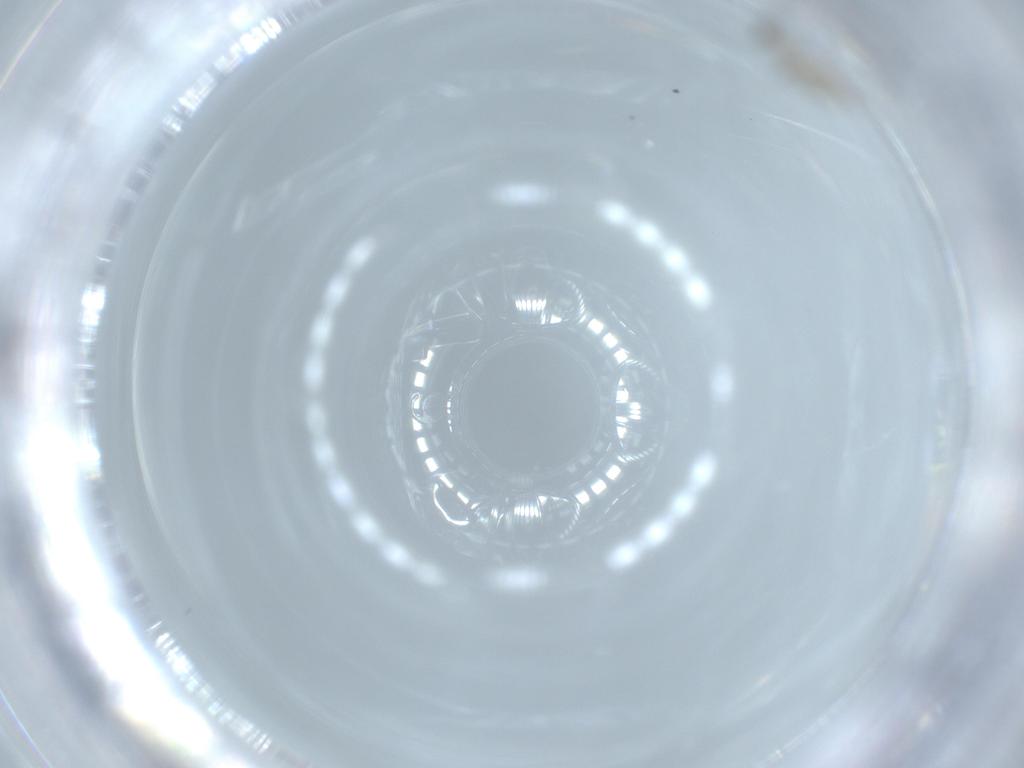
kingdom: Animalia
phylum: Arthropoda
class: Insecta
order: Diptera
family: Cecidomyiidae
